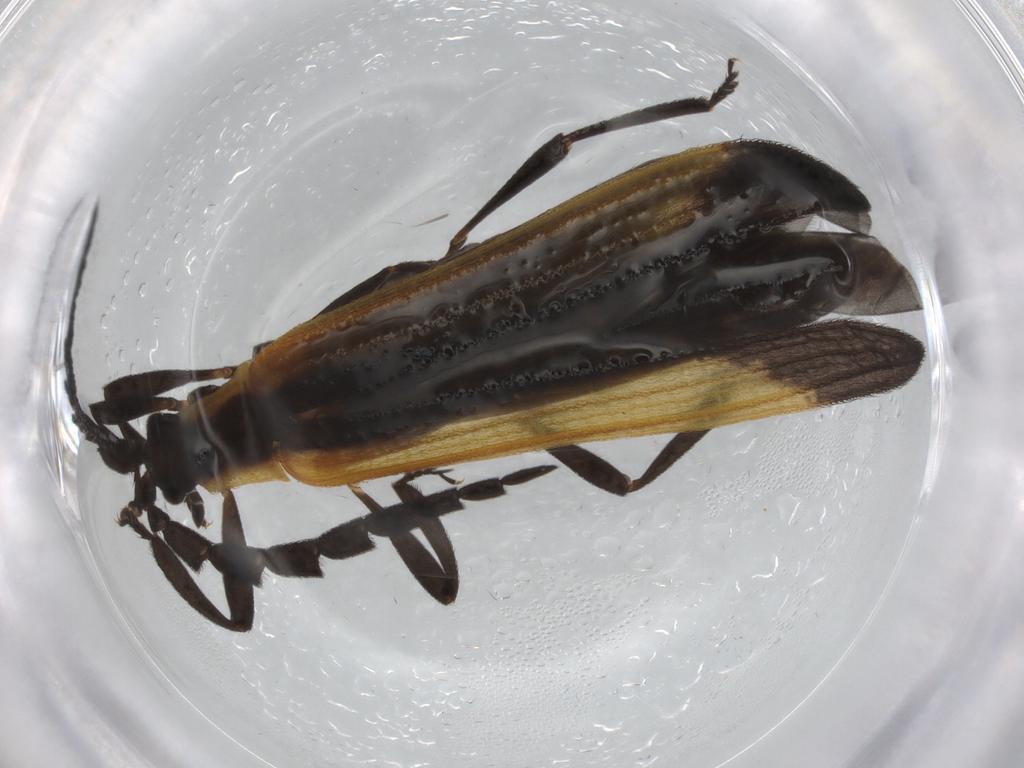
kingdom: Animalia
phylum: Arthropoda
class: Insecta
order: Coleoptera
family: Lycidae
